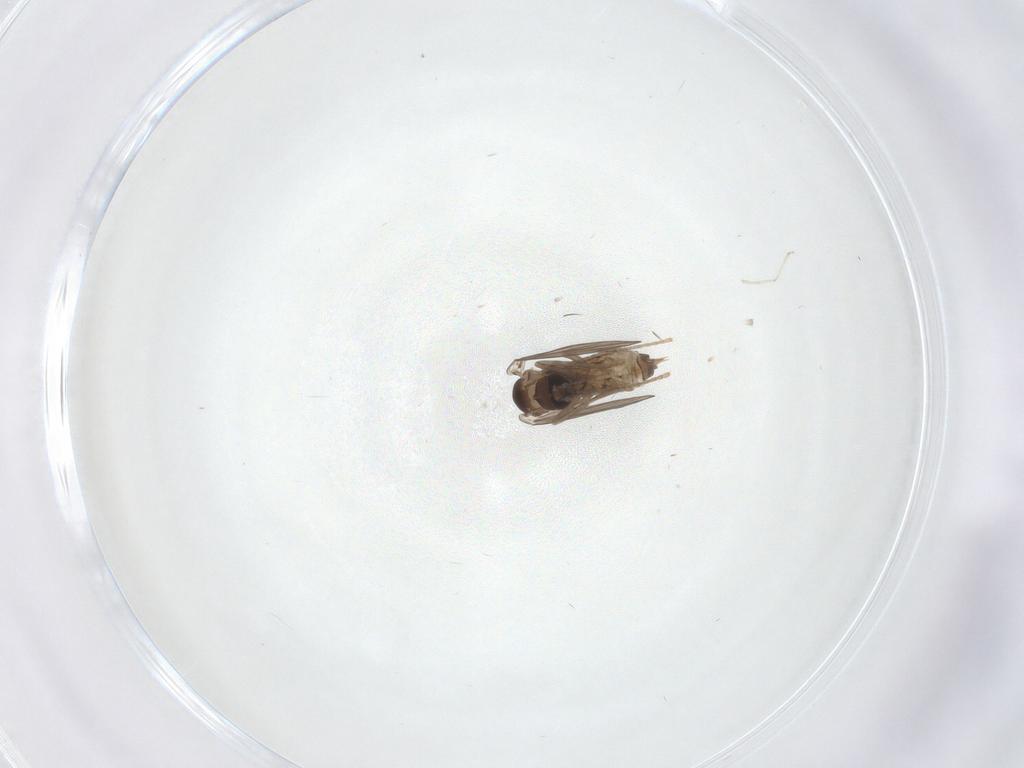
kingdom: Animalia
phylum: Arthropoda
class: Insecta
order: Diptera
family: Psychodidae
